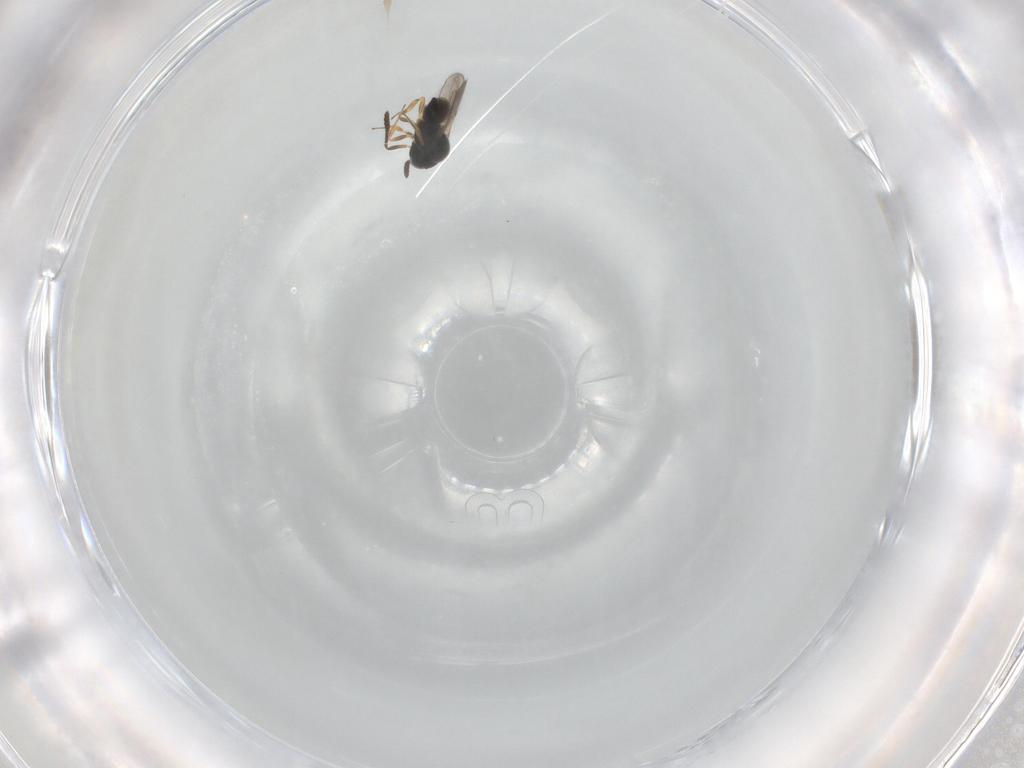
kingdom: Animalia
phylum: Arthropoda
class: Insecta
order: Hymenoptera
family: Scelionidae
